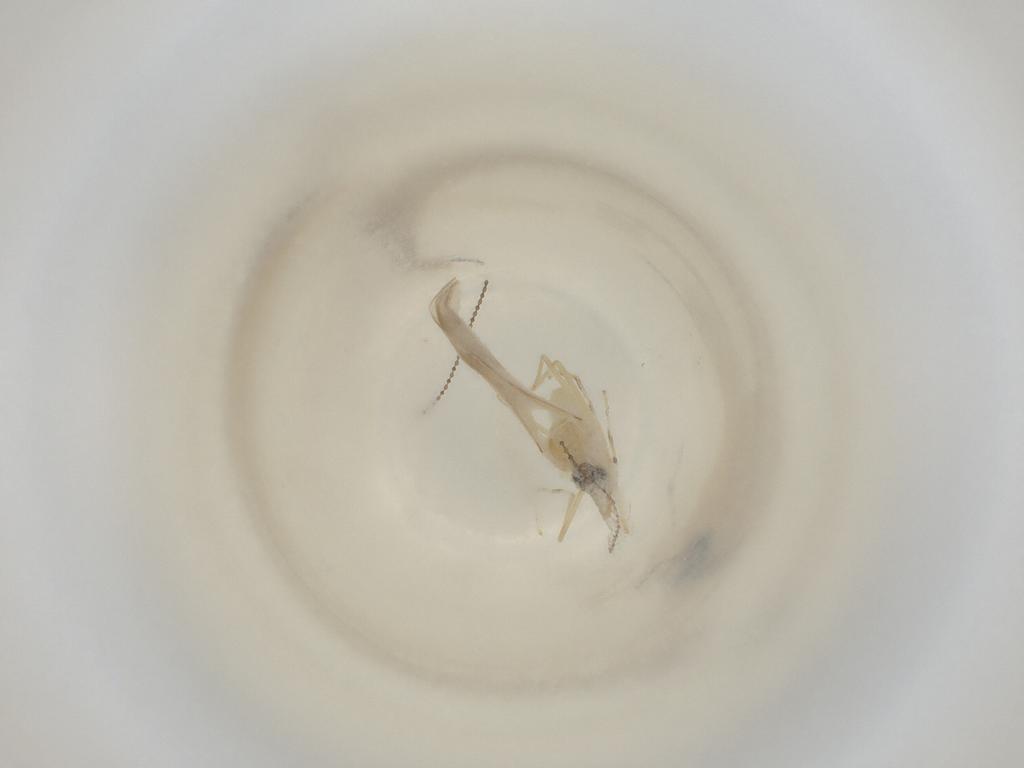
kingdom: Animalia
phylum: Arthropoda
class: Insecta
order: Diptera
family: Cecidomyiidae
